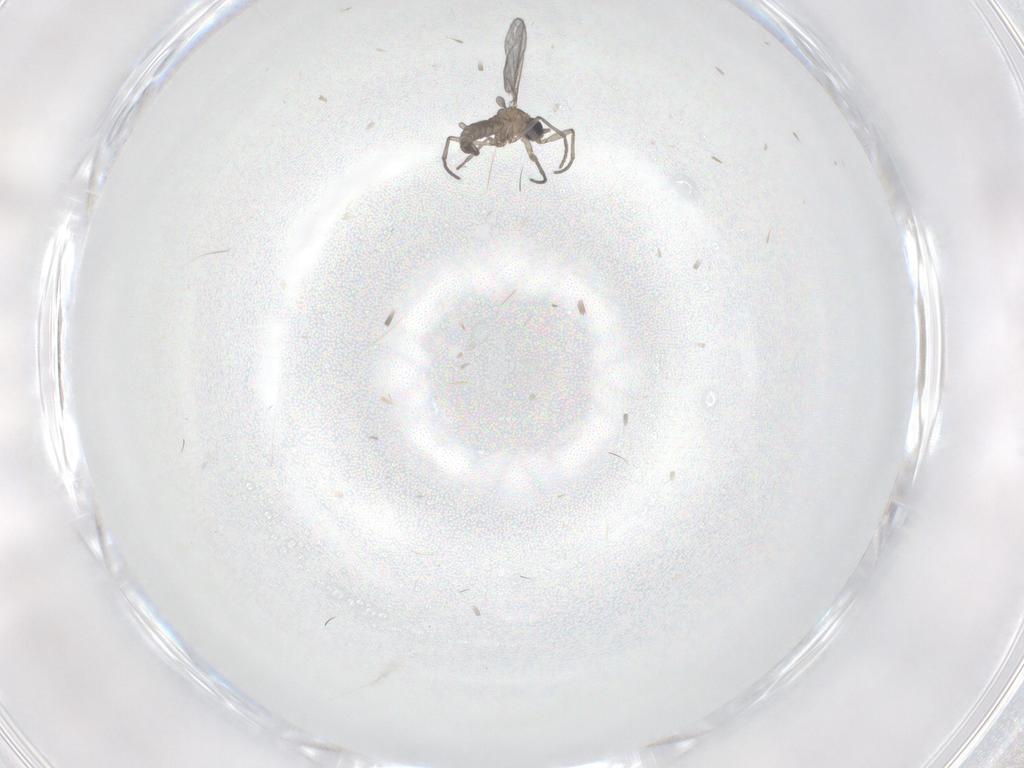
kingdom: Animalia
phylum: Arthropoda
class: Insecta
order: Diptera
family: Sciaridae
